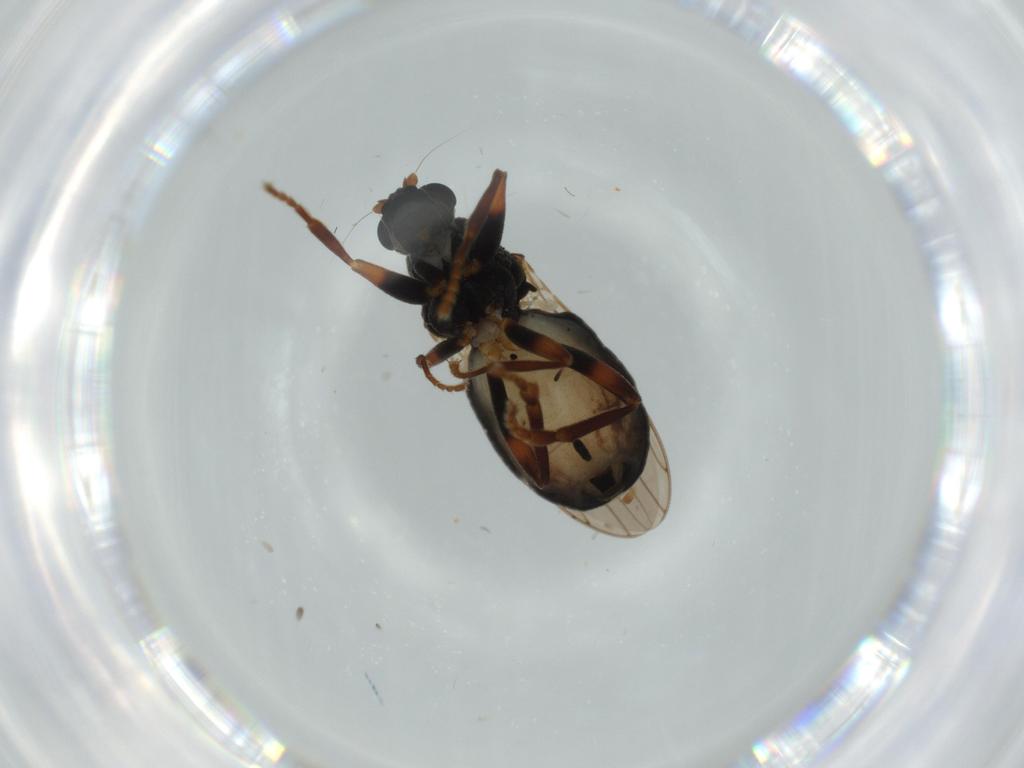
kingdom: Animalia
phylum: Arthropoda
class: Insecta
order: Diptera
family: Sphaeroceridae
